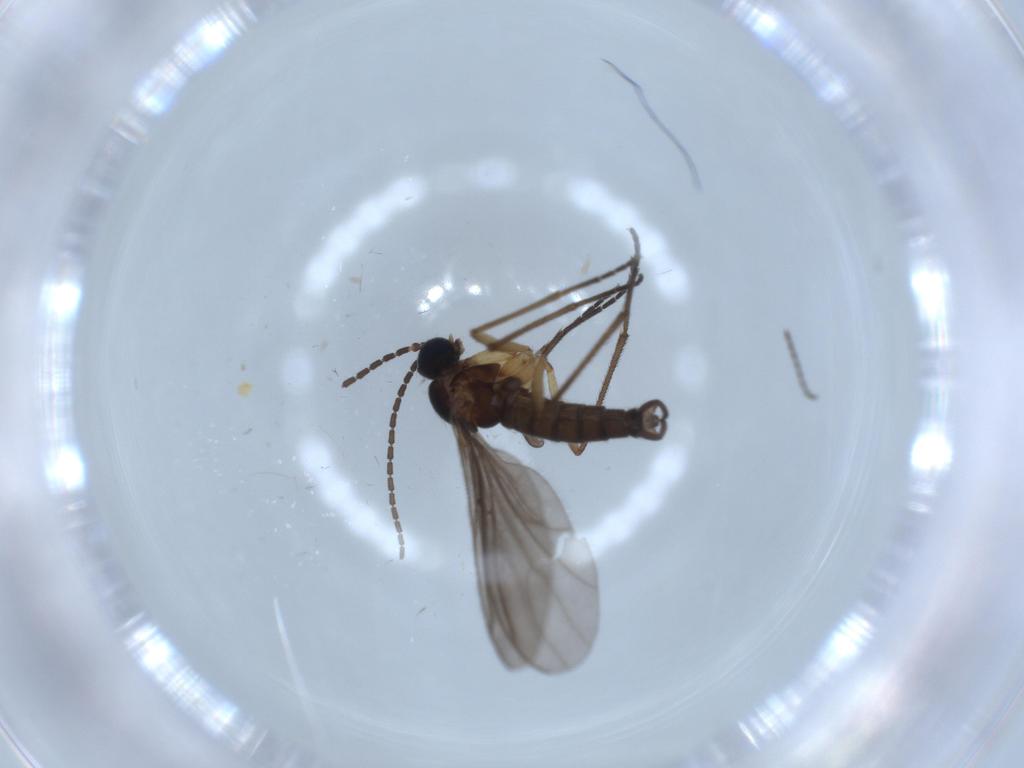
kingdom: Animalia
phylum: Arthropoda
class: Insecta
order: Diptera
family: Sciaridae
